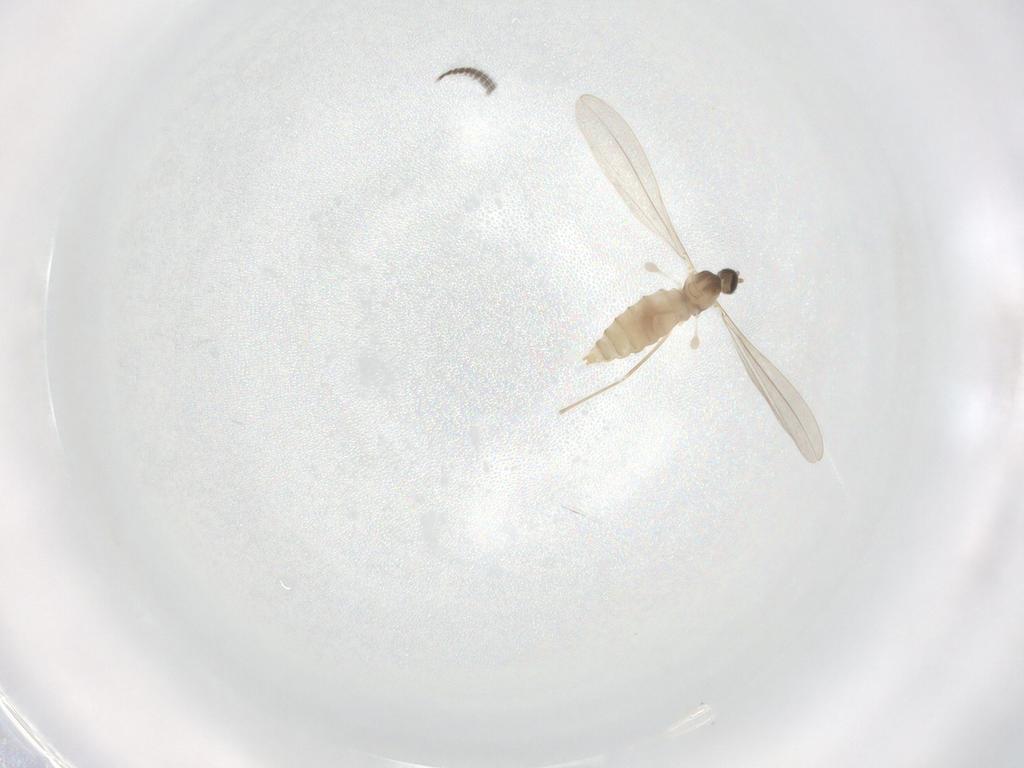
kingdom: Animalia
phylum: Arthropoda
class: Insecta
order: Diptera
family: Cecidomyiidae
